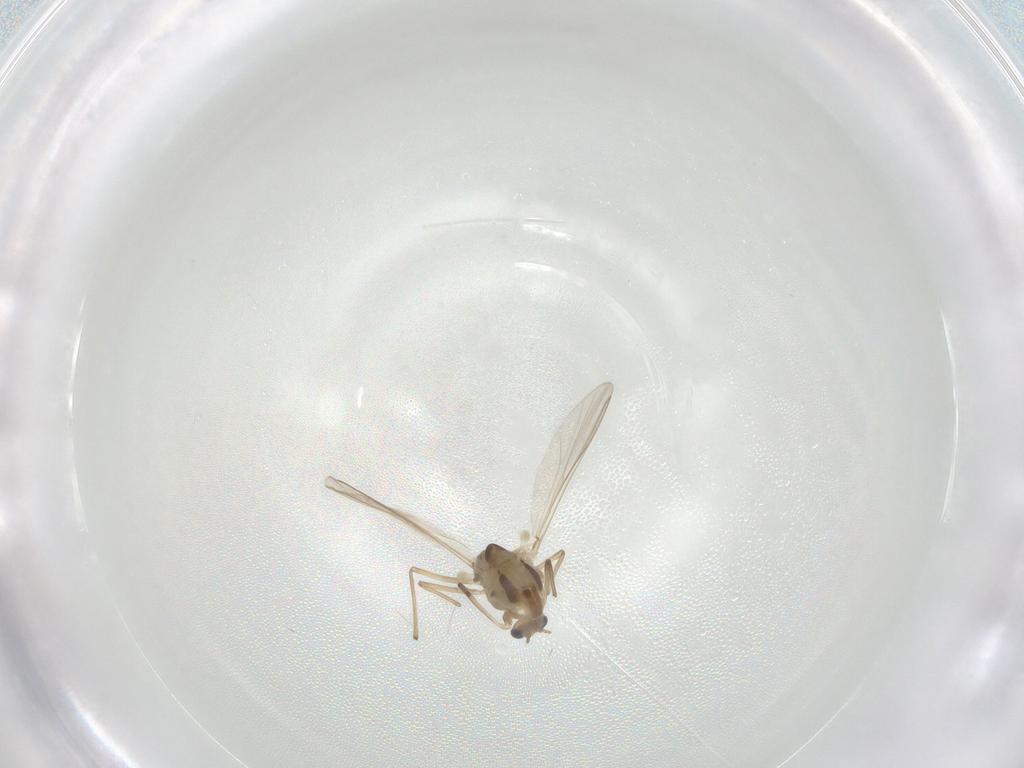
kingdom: Animalia
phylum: Arthropoda
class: Insecta
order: Diptera
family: Chironomidae
